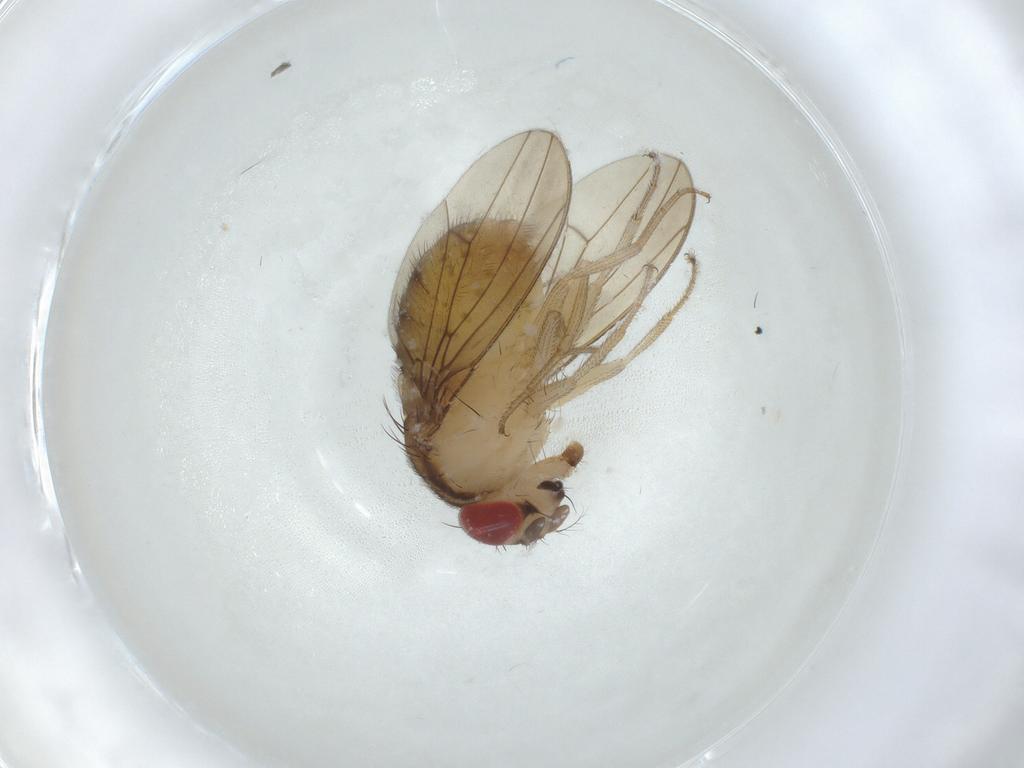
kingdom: Animalia
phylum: Arthropoda
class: Insecta
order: Diptera
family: Drosophilidae
